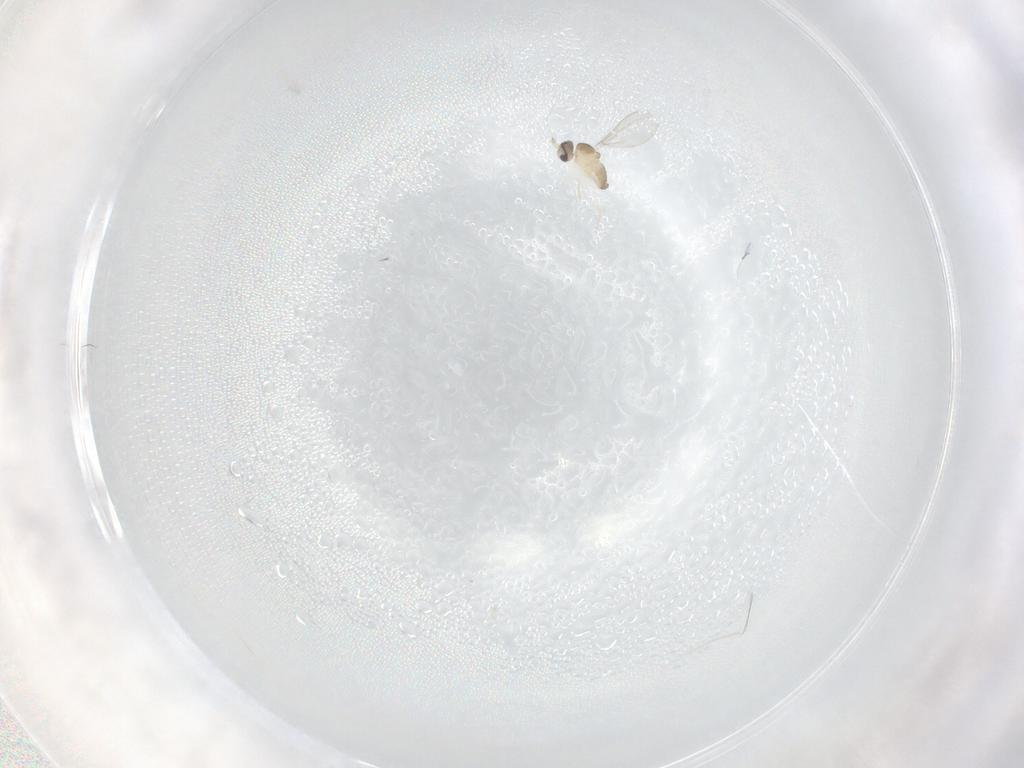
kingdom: Animalia
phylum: Arthropoda
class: Insecta
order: Diptera
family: Cecidomyiidae
